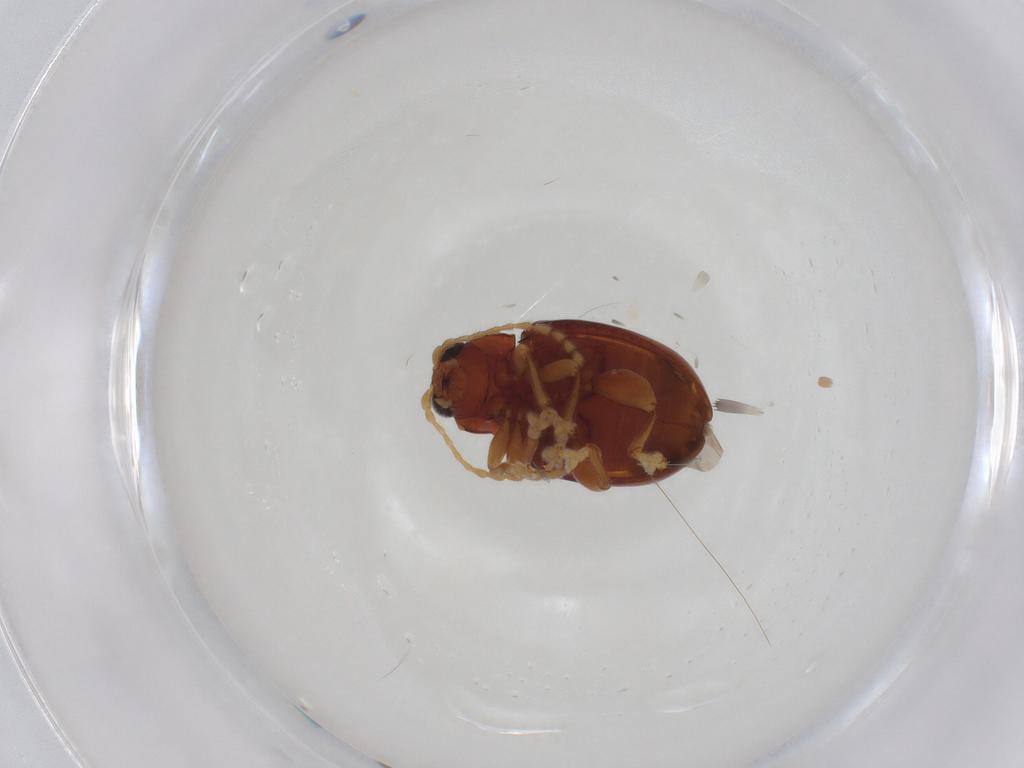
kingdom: Animalia
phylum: Arthropoda
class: Insecta
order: Coleoptera
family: Chrysomelidae
